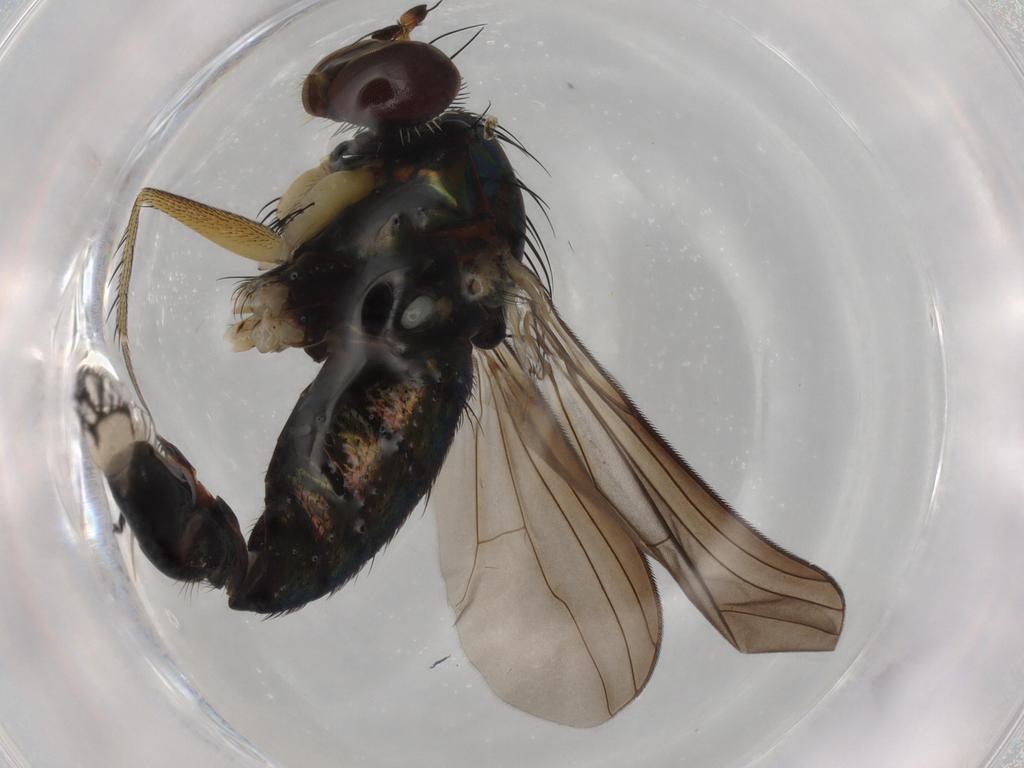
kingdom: Animalia
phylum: Arthropoda
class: Insecta
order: Diptera
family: Dolichopodidae
